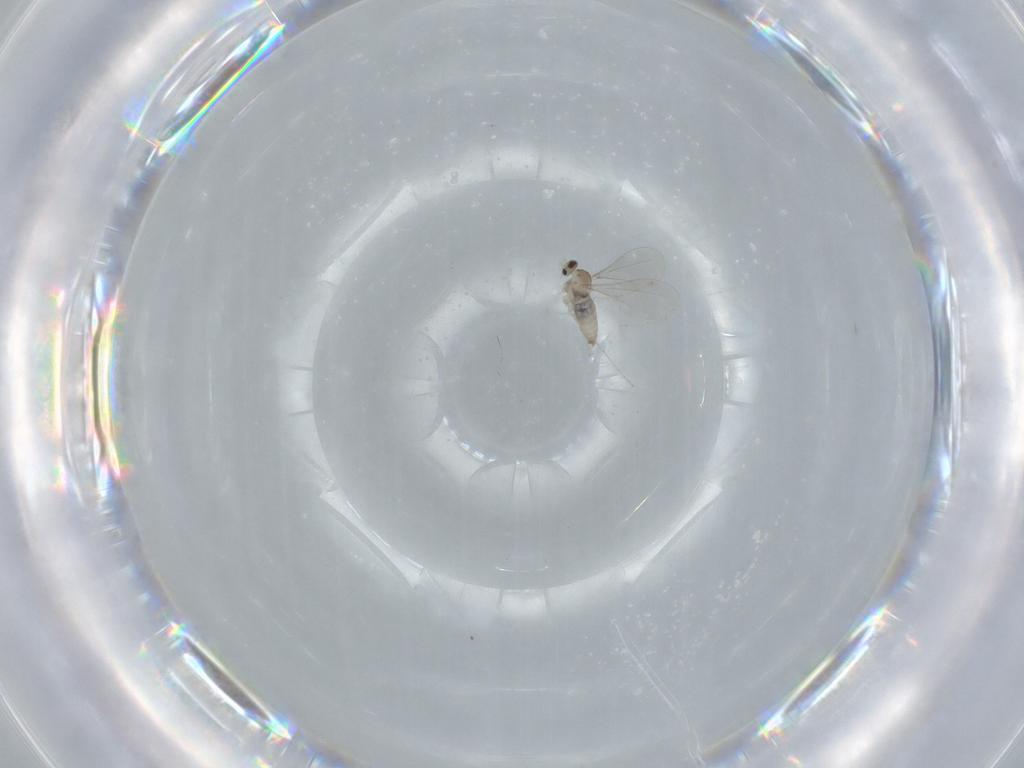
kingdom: Animalia
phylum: Arthropoda
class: Insecta
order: Diptera
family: Cecidomyiidae
